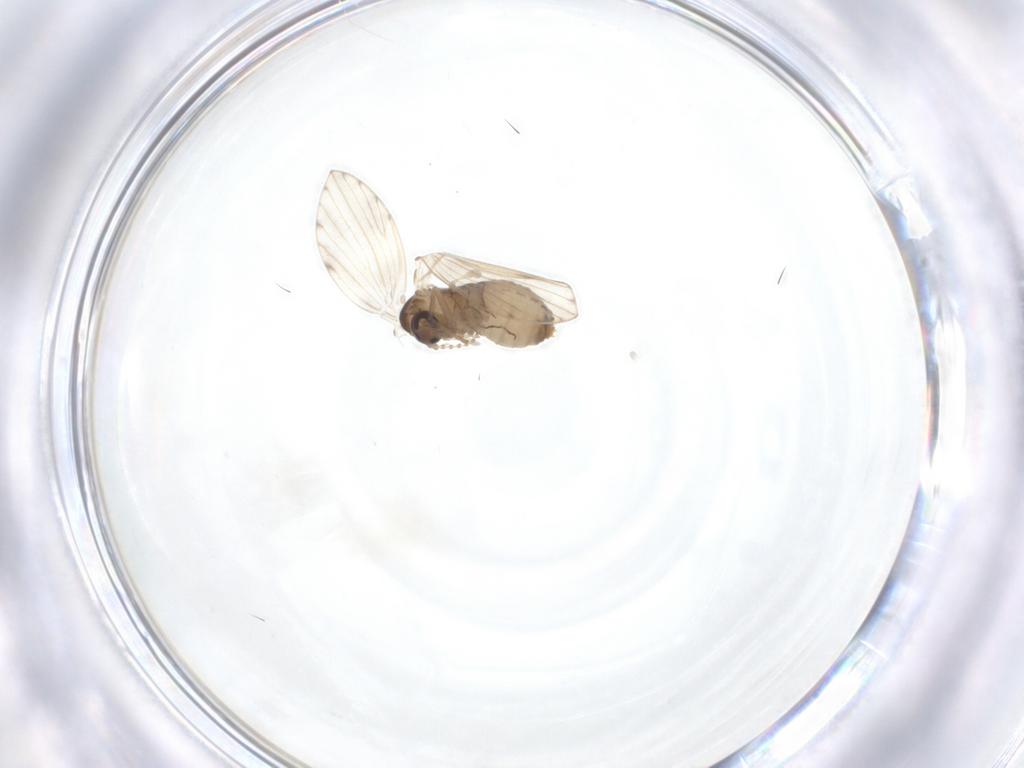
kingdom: Animalia
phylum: Arthropoda
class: Insecta
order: Diptera
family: Psychodidae
